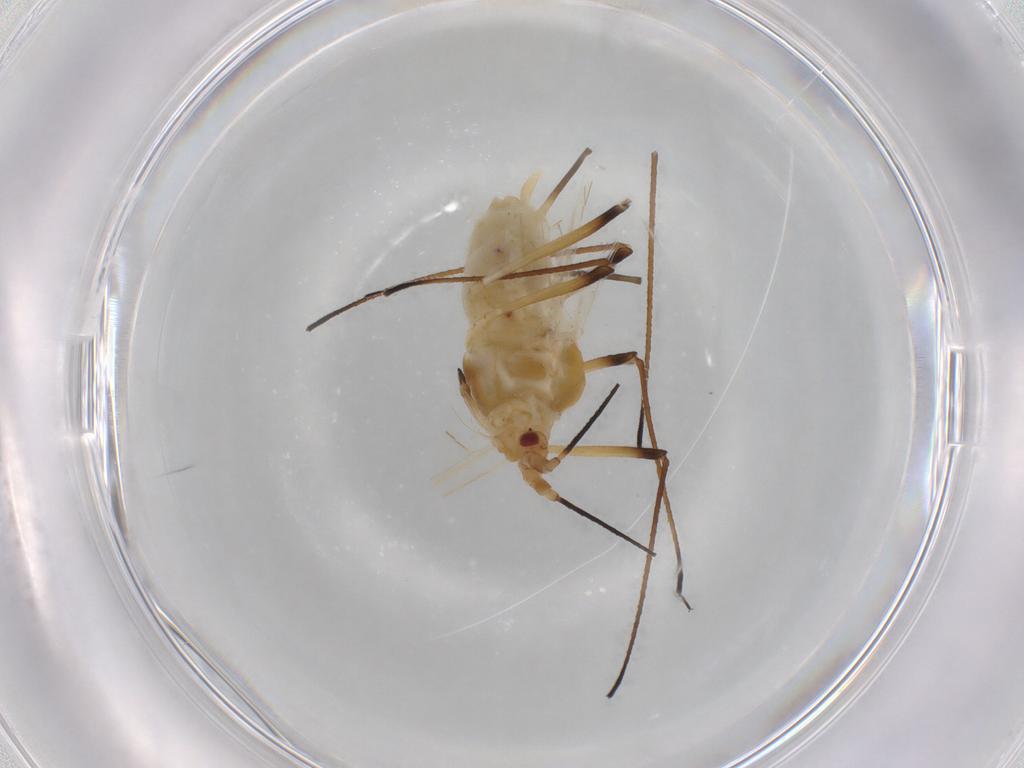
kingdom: Animalia
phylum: Arthropoda
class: Insecta
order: Hemiptera
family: Aphididae
